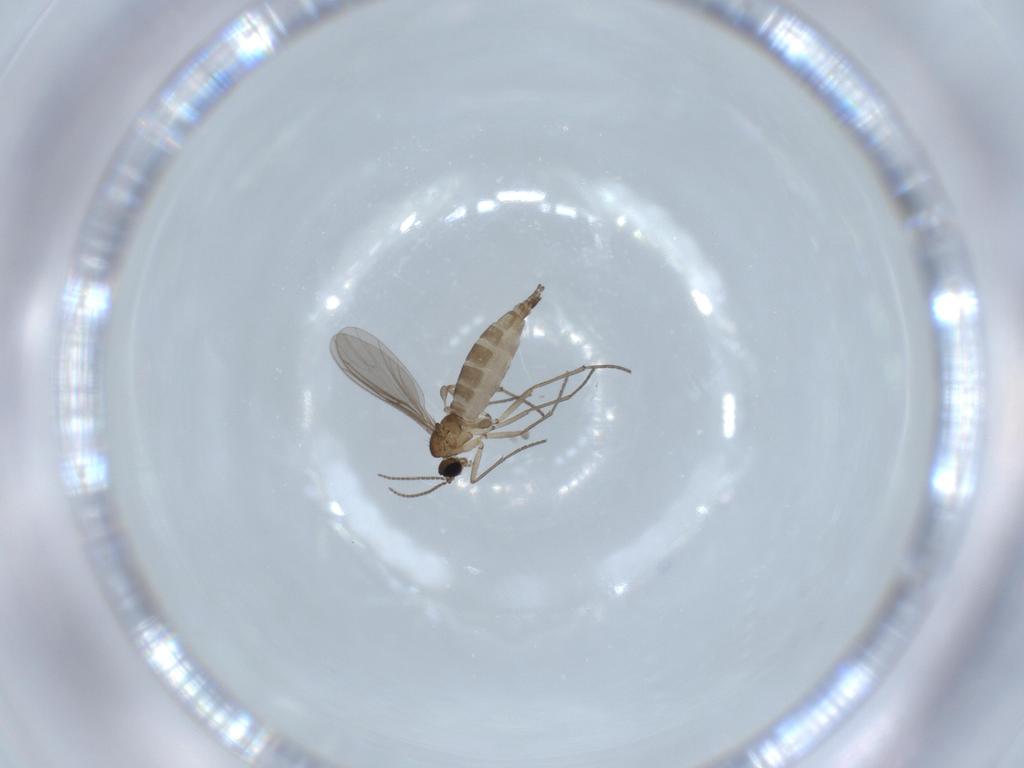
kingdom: Animalia
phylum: Arthropoda
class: Insecta
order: Diptera
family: Sciaridae
